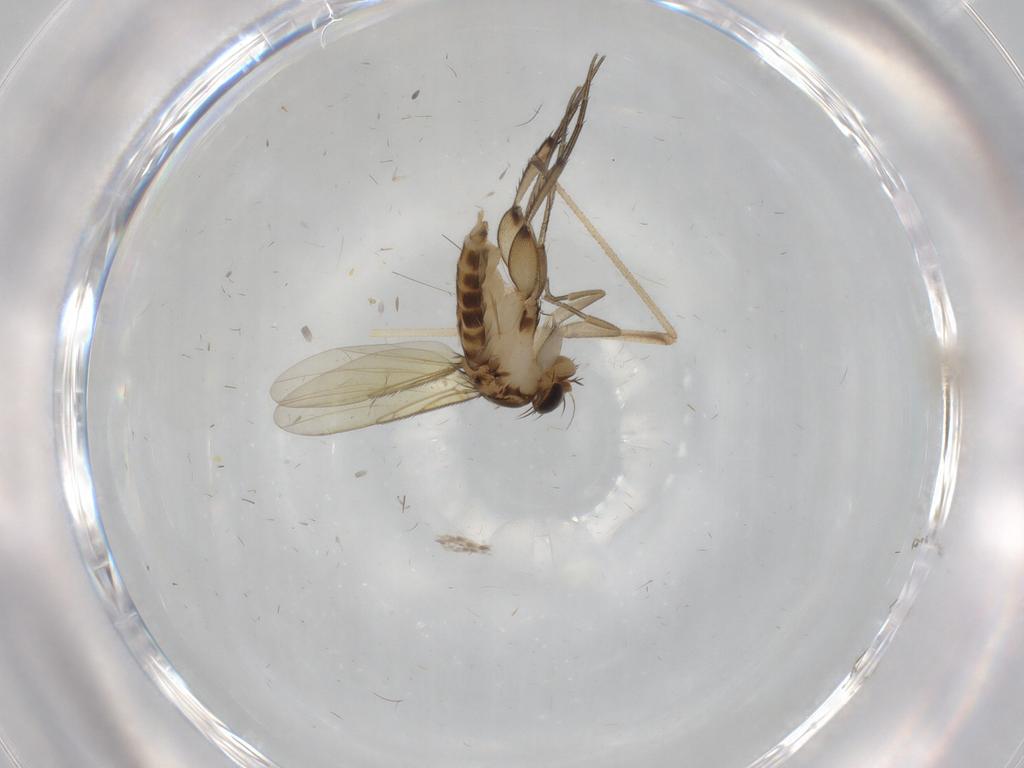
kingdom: Animalia
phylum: Arthropoda
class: Insecta
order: Diptera
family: Phoridae
